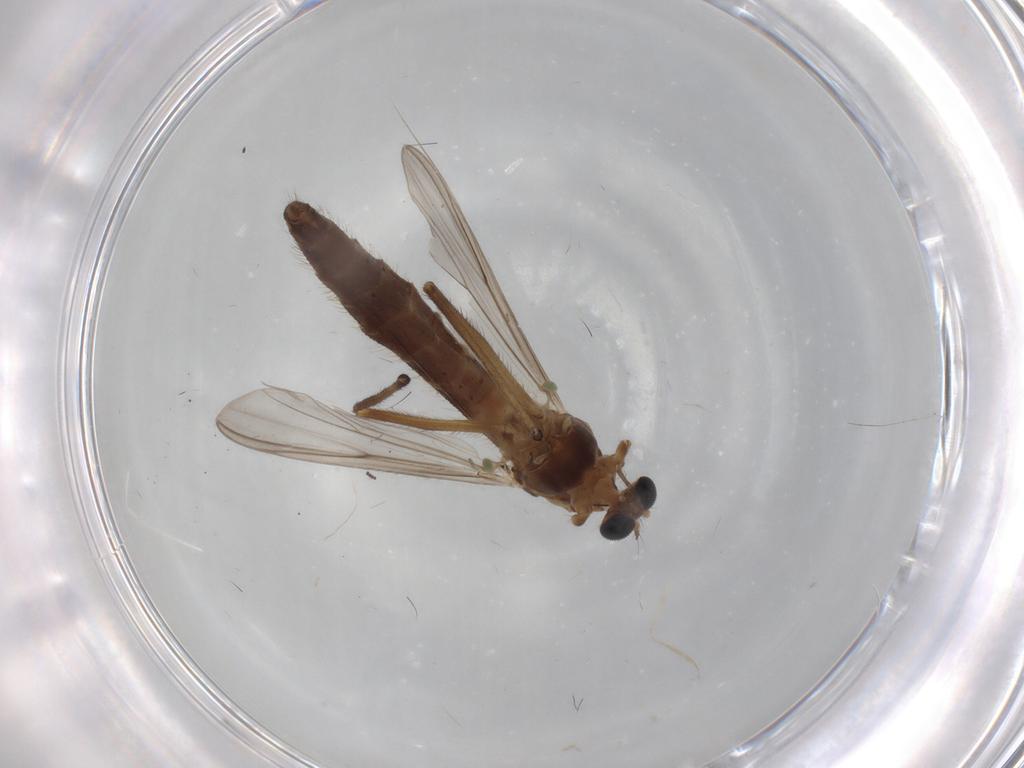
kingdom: Animalia
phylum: Arthropoda
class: Insecta
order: Diptera
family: Chironomidae
